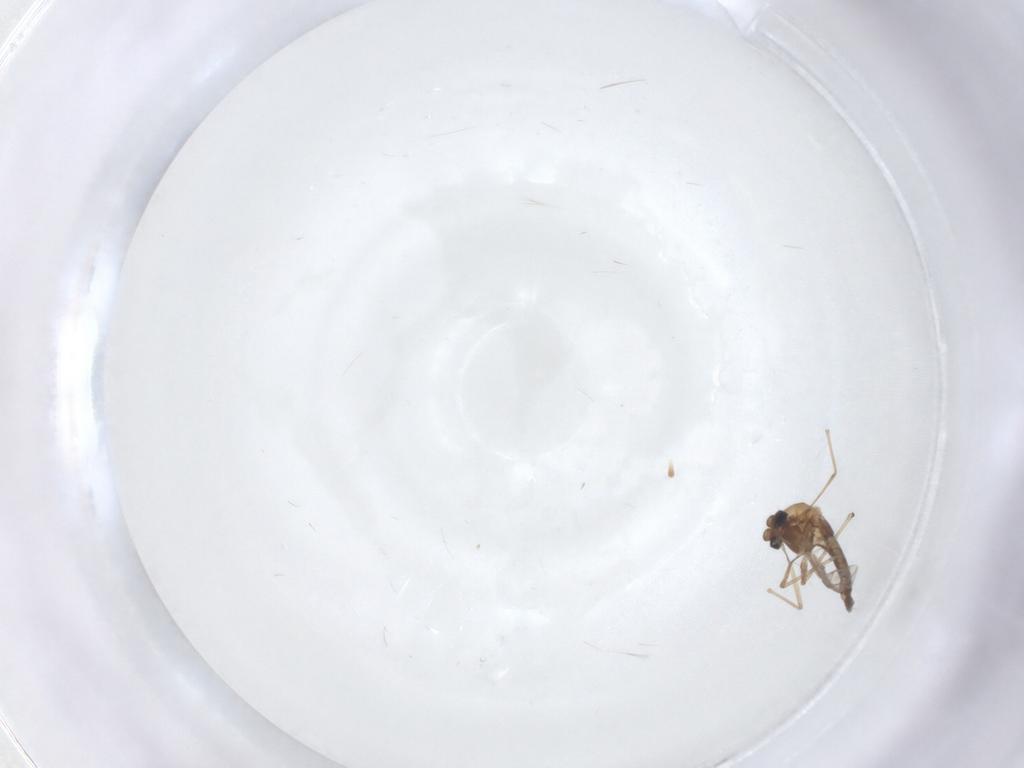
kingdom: Animalia
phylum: Arthropoda
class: Insecta
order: Diptera
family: Chironomidae
